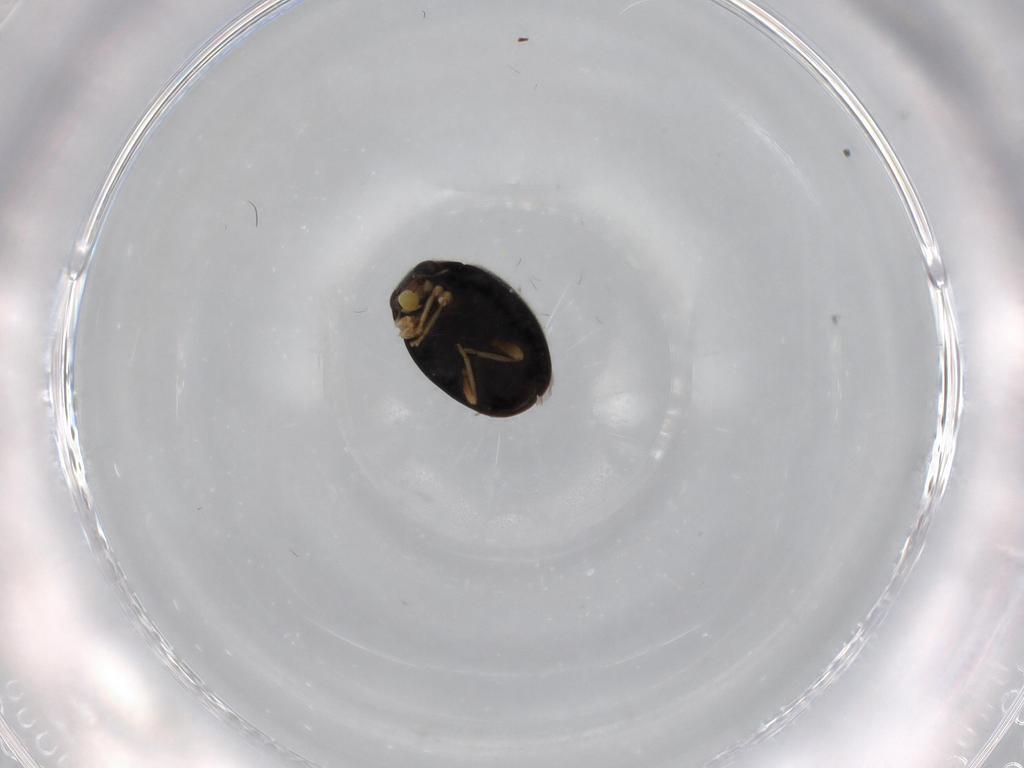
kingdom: Animalia
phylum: Arthropoda
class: Insecta
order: Coleoptera
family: Coccinellidae
